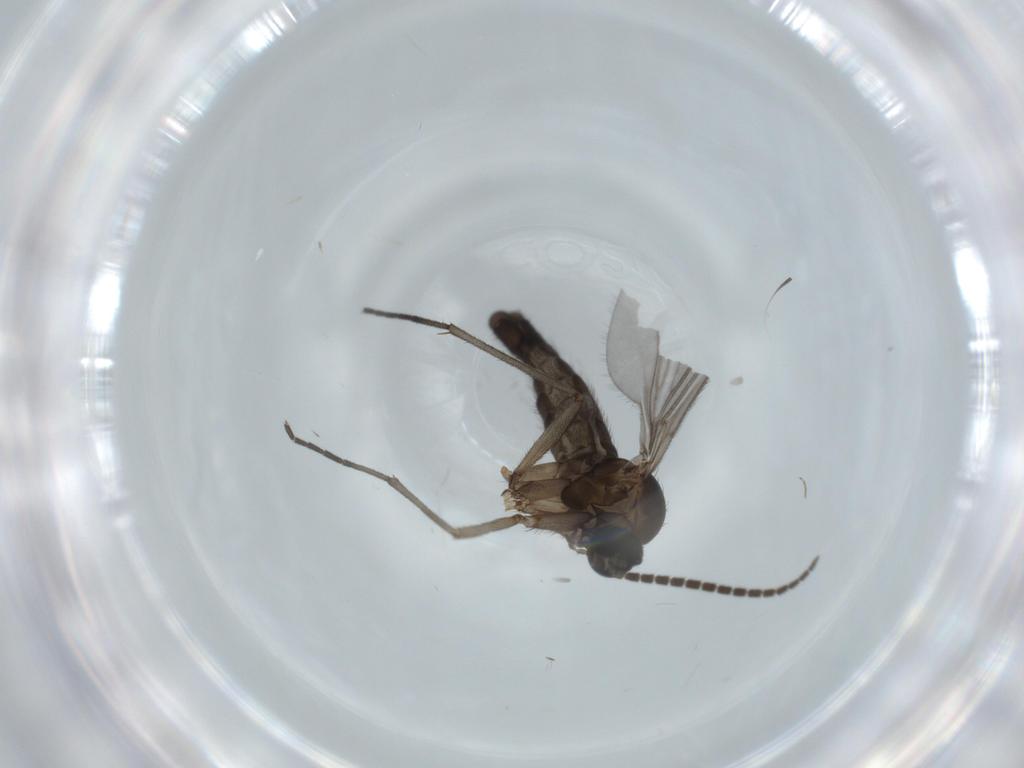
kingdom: Animalia
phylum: Arthropoda
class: Insecta
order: Diptera
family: Sciaridae
